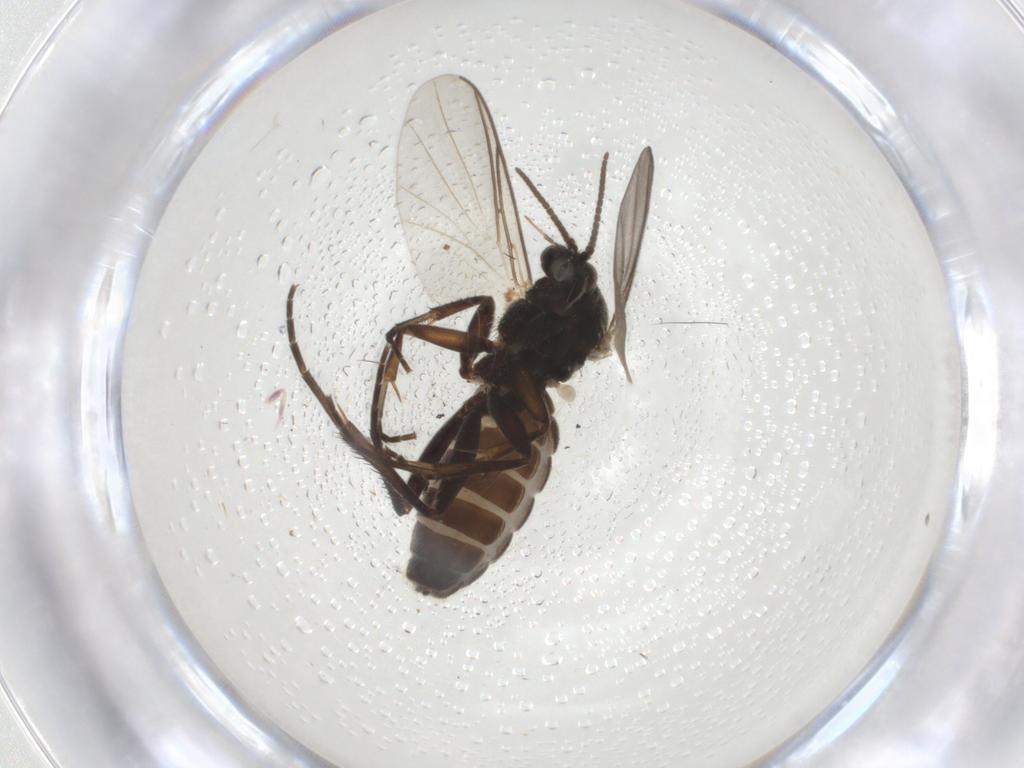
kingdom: Animalia
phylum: Arthropoda
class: Insecta
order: Diptera
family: Mycetophilidae
